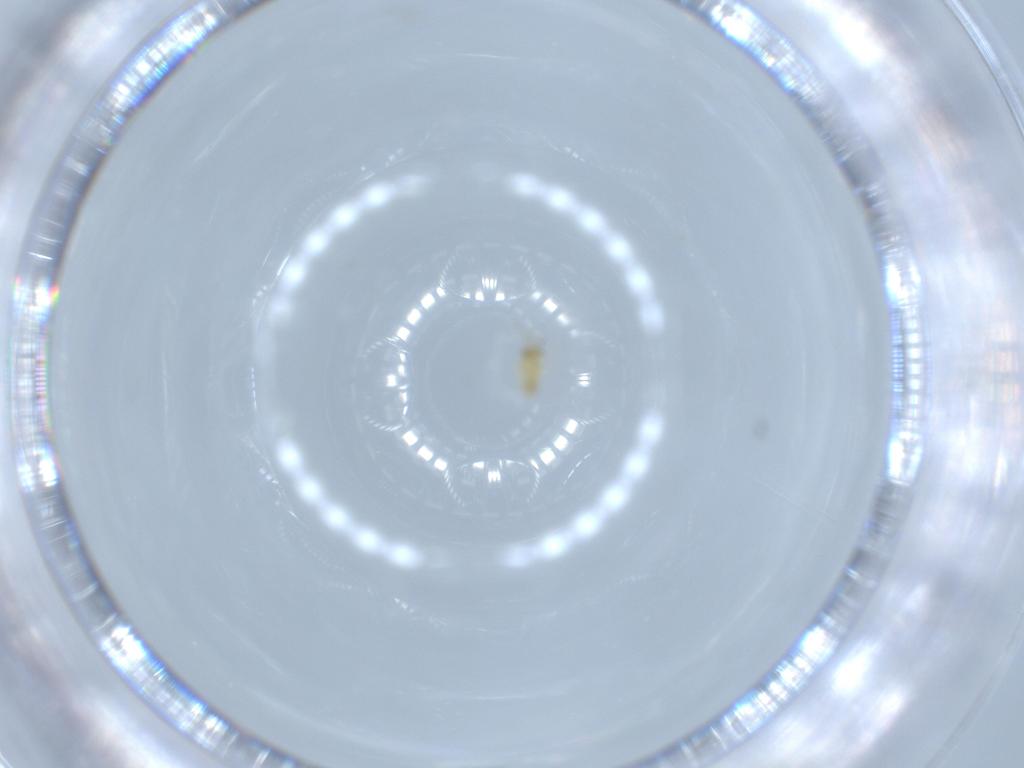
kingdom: Animalia
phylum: Arthropoda
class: Insecta
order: Hymenoptera
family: Aphelinidae
